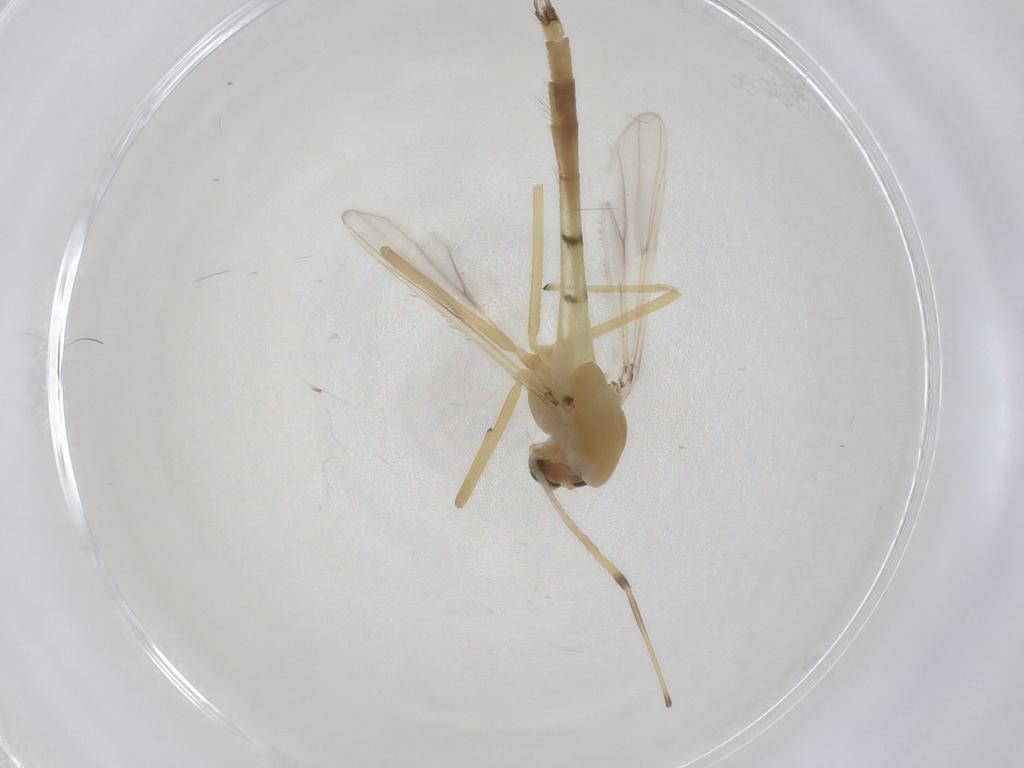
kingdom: Animalia
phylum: Arthropoda
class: Insecta
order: Diptera
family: Chironomidae
